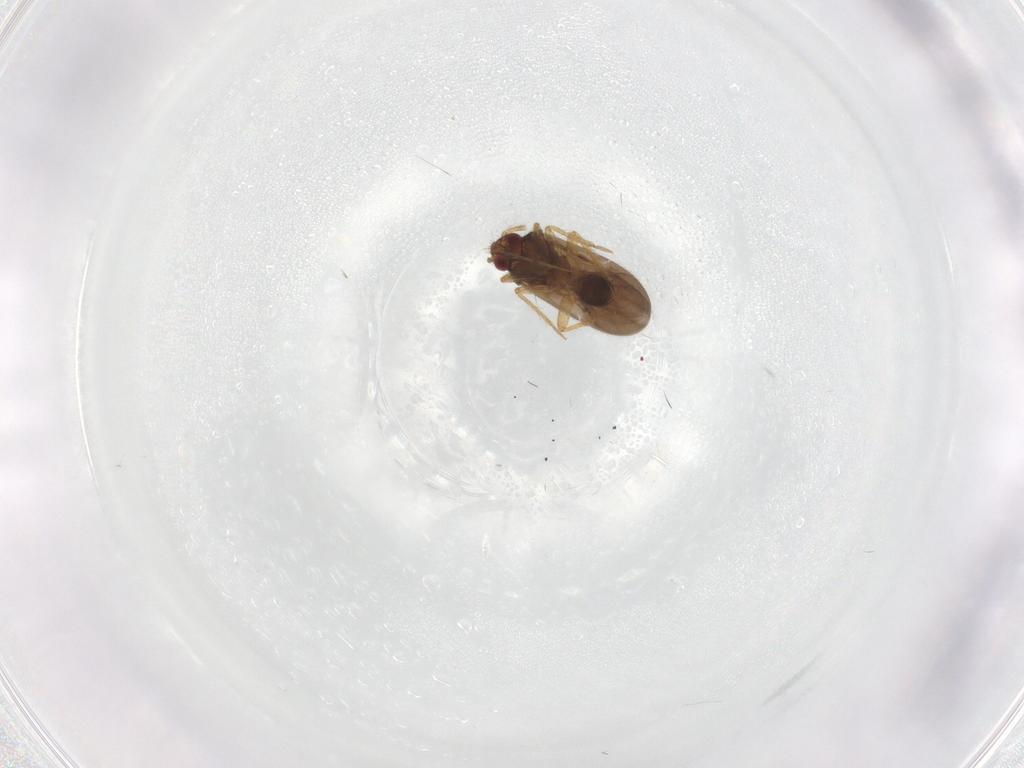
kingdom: Animalia
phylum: Arthropoda
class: Insecta
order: Hemiptera
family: Ceratocombidae
